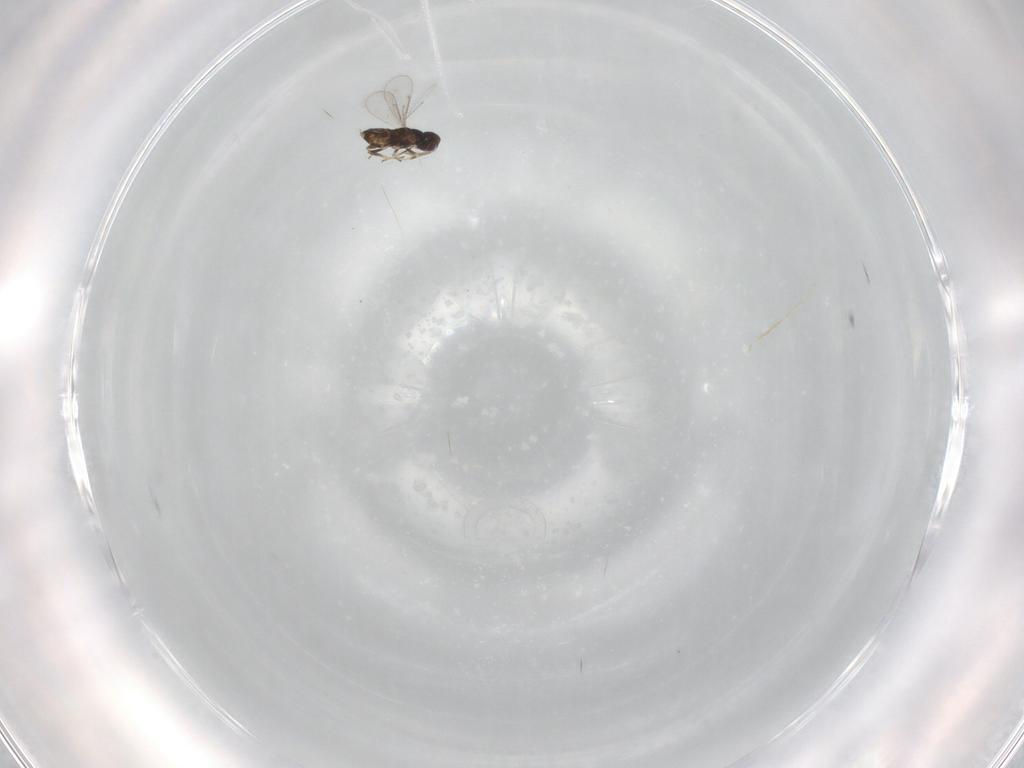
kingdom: Animalia
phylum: Arthropoda
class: Insecta
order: Hymenoptera
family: Aphelinidae
